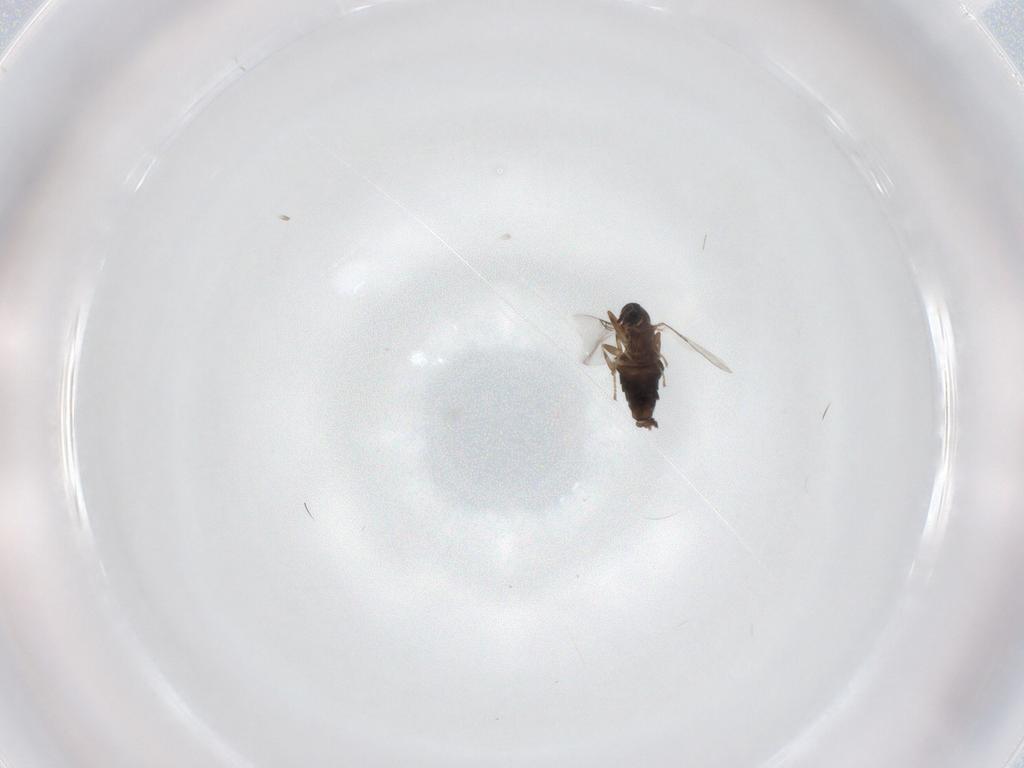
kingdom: Animalia
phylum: Arthropoda
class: Insecta
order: Diptera
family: Scatopsidae
